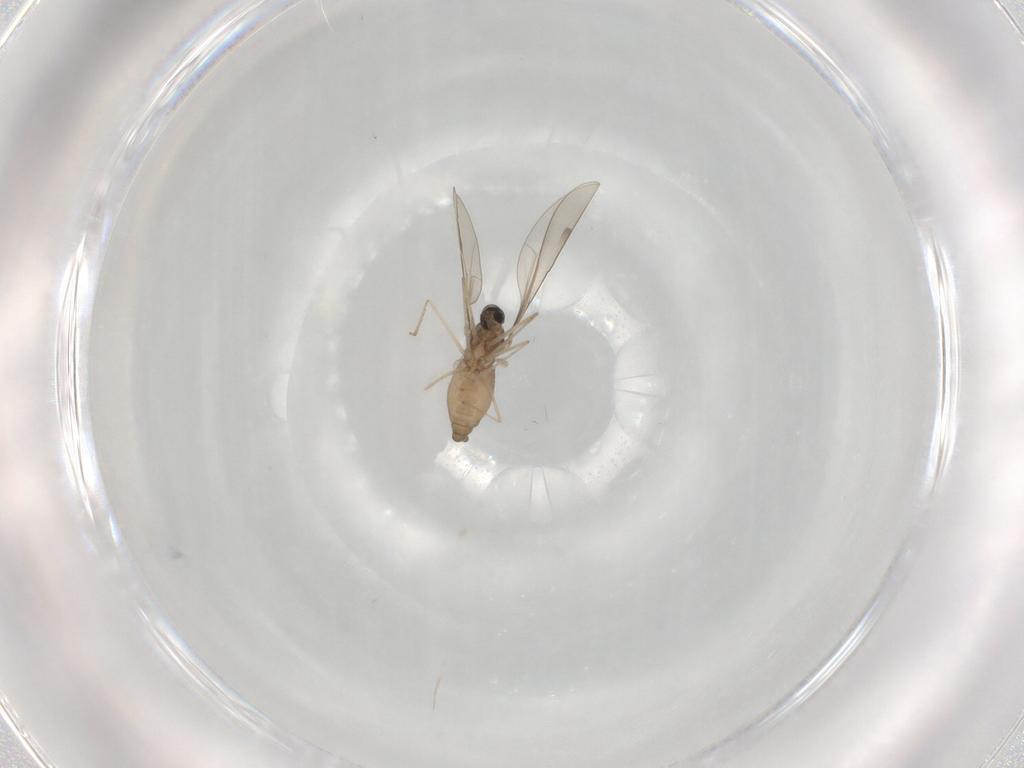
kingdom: Animalia
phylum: Arthropoda
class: Insecta
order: Diptera
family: Cecidomyiidae
